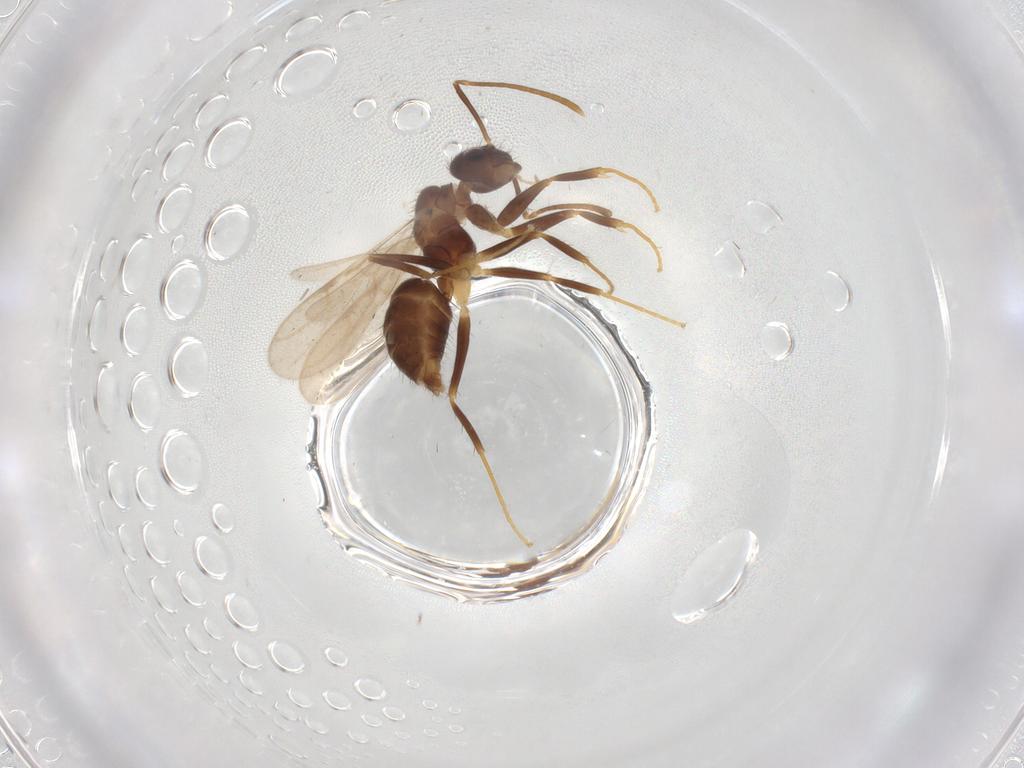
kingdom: Animalia
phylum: Arthropoda
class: Insecta
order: Hymenoptera
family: Formicidae
